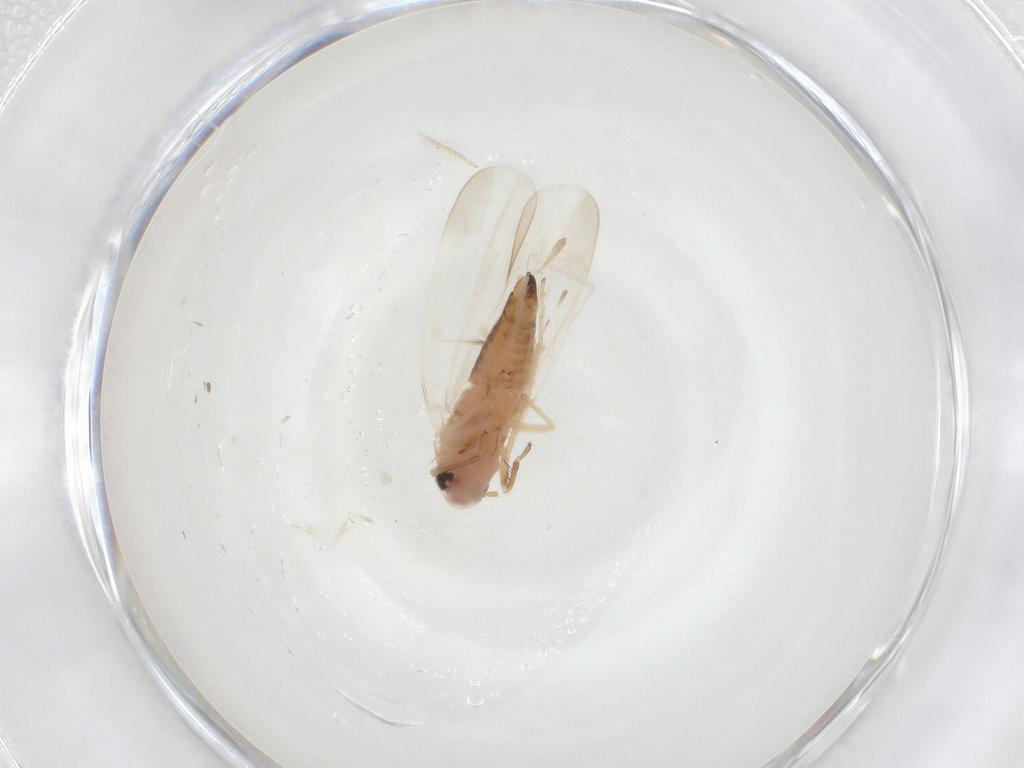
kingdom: Animalia
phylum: Arthropoda
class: Insecta
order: Hemiptera
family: Cicadellidae
